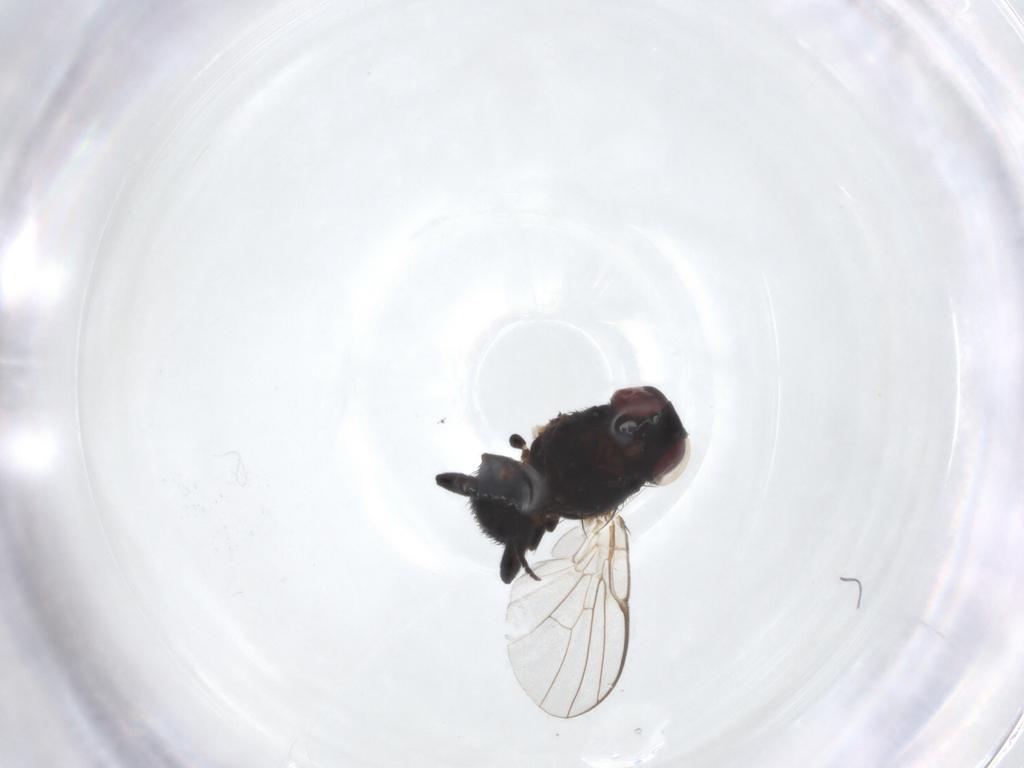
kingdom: Animalia
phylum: Arthropoda
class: Insecta
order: Diptera
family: Agromyzidae
